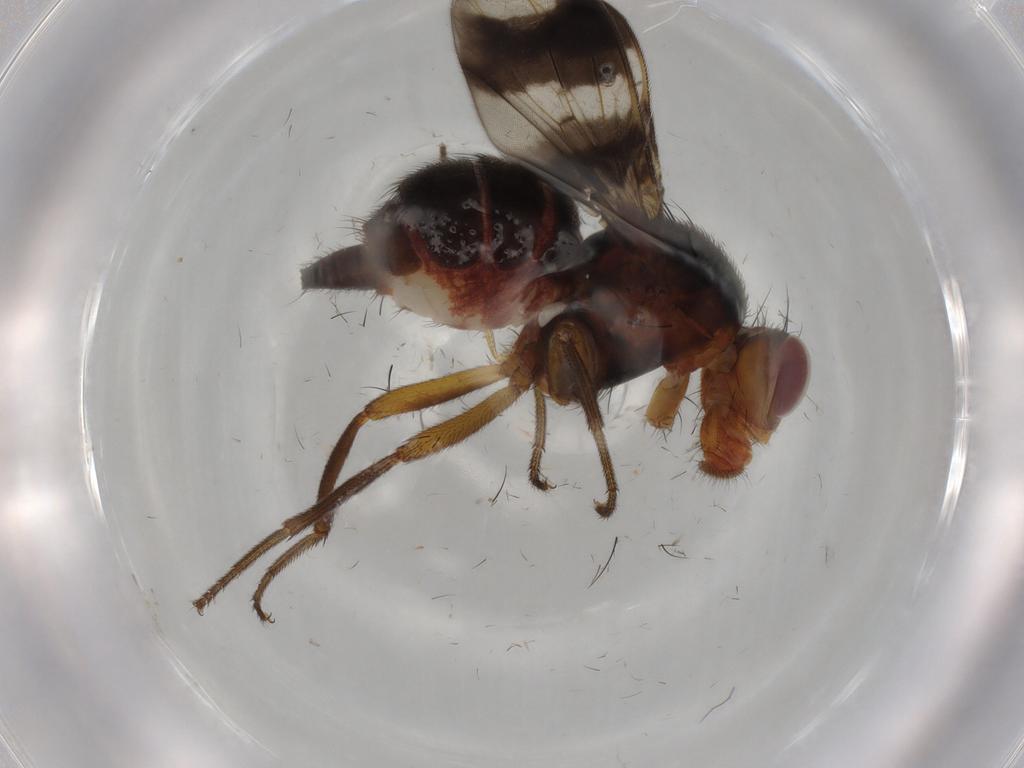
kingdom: Animalia
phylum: Arthropoda
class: Insecta
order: Diptera
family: Richardiidae
